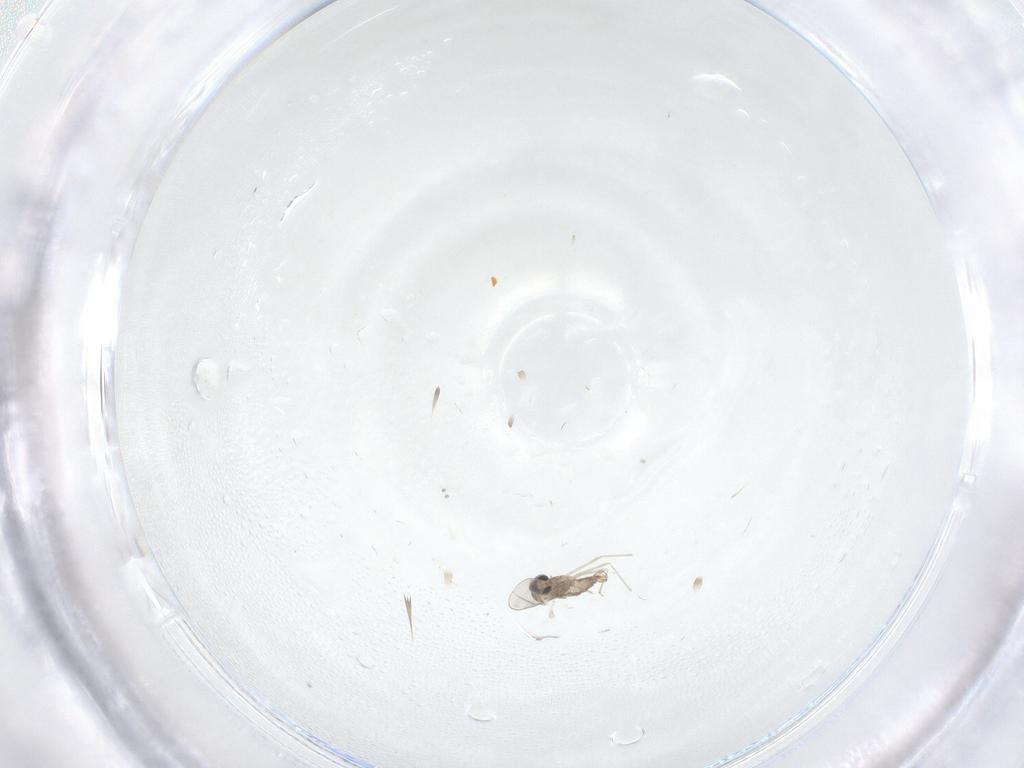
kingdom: Animalia
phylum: Arthropoda
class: Insecta
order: Diptera
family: Cecidomyiidae
